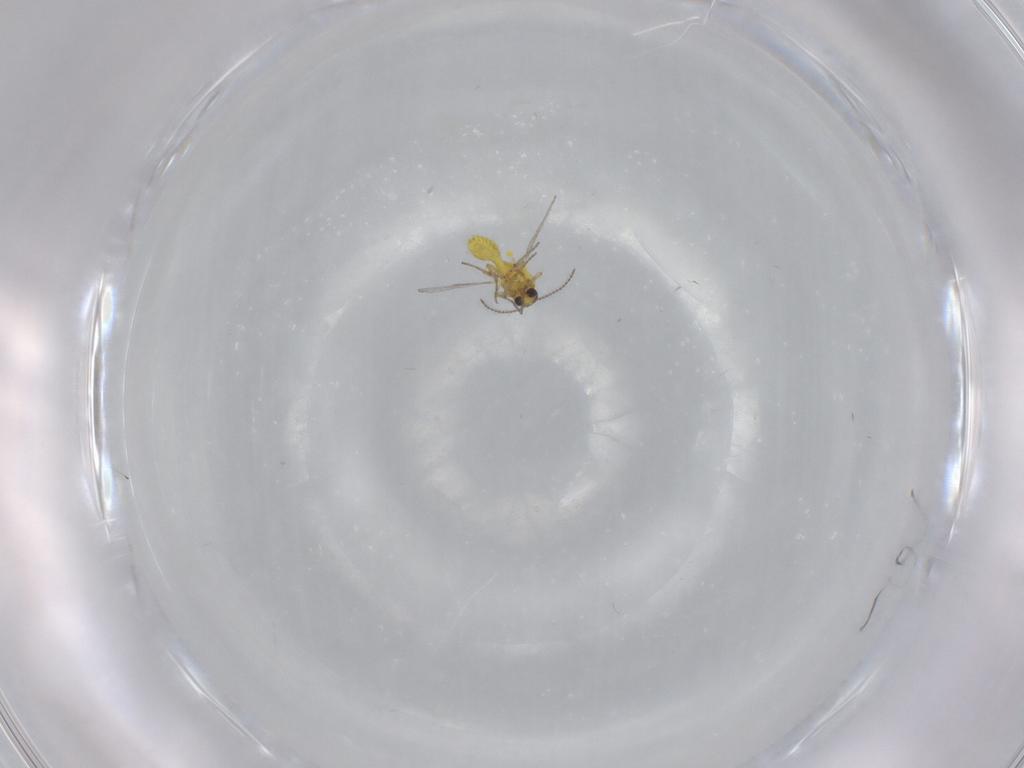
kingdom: Animalia
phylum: Arthropoda
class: Insecta
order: Diptera
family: Ceratopogonidae
